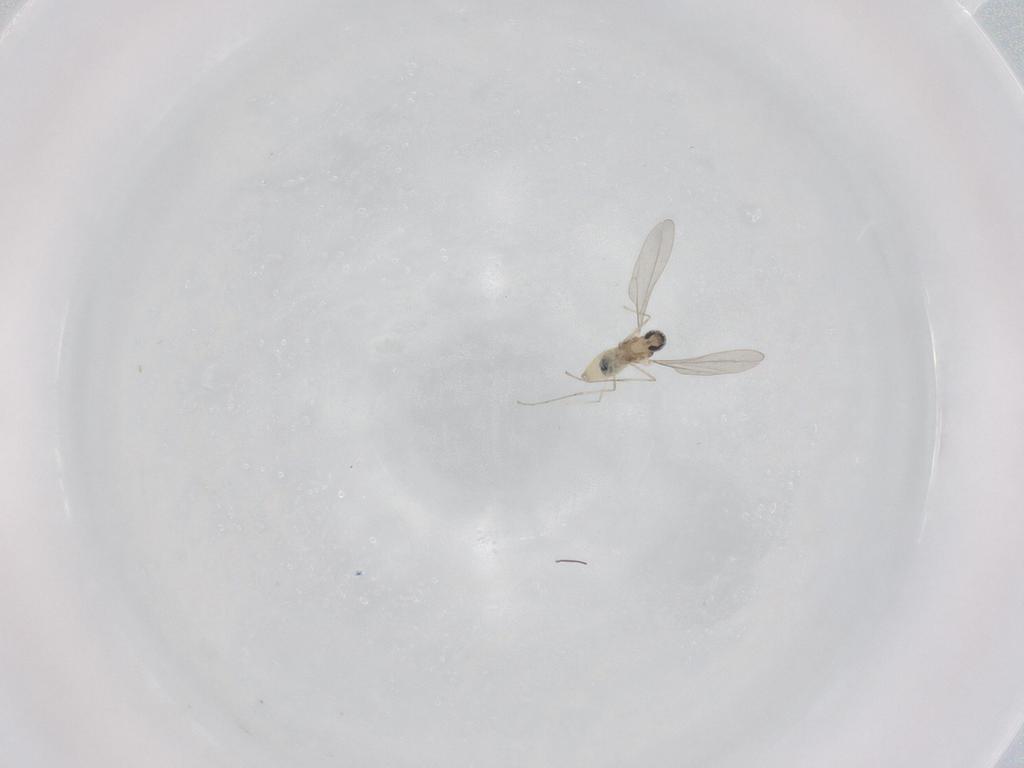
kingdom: Animalia
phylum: Arthropoda
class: Insecta
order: Diptera
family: Cecidomyiidae
